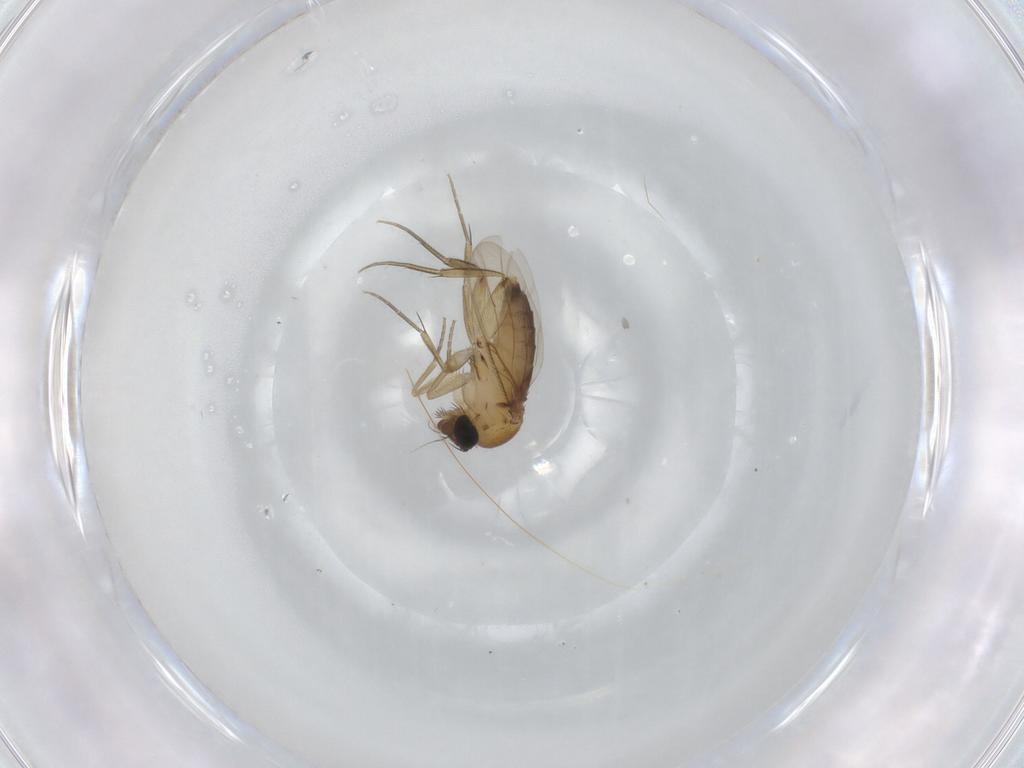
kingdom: Animalia
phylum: Arthropoda
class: Insecta
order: Diptera
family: Phoridae
